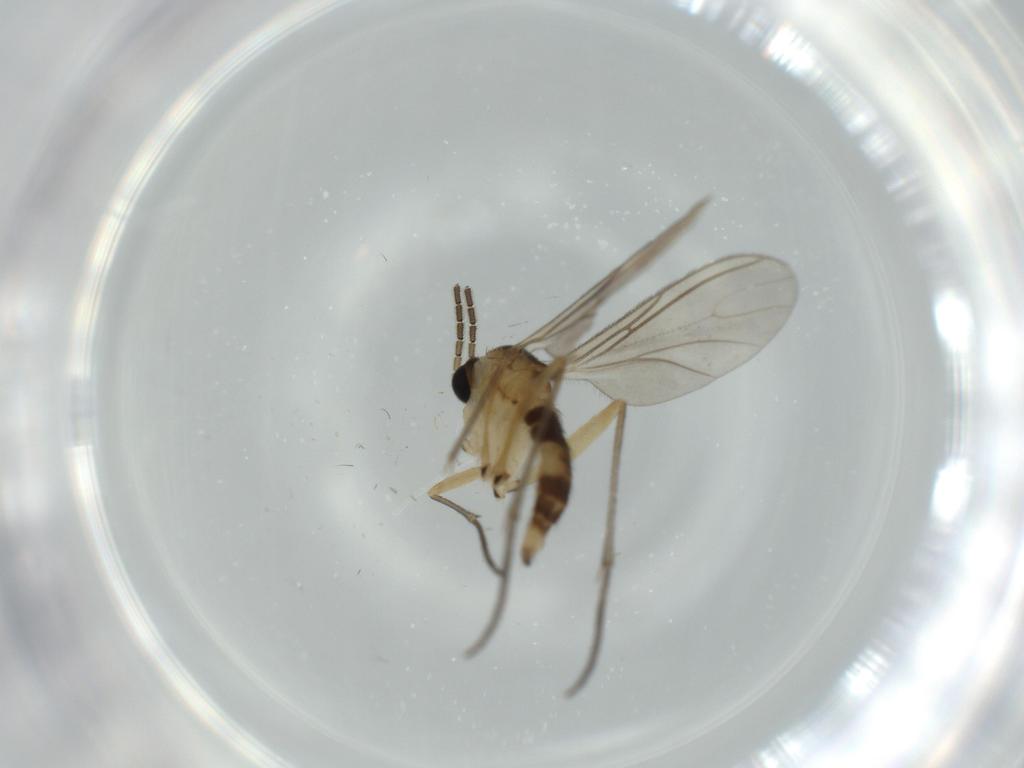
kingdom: Animalia
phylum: Arthropoda
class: Insecta
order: Diptera
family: Sciaridae
